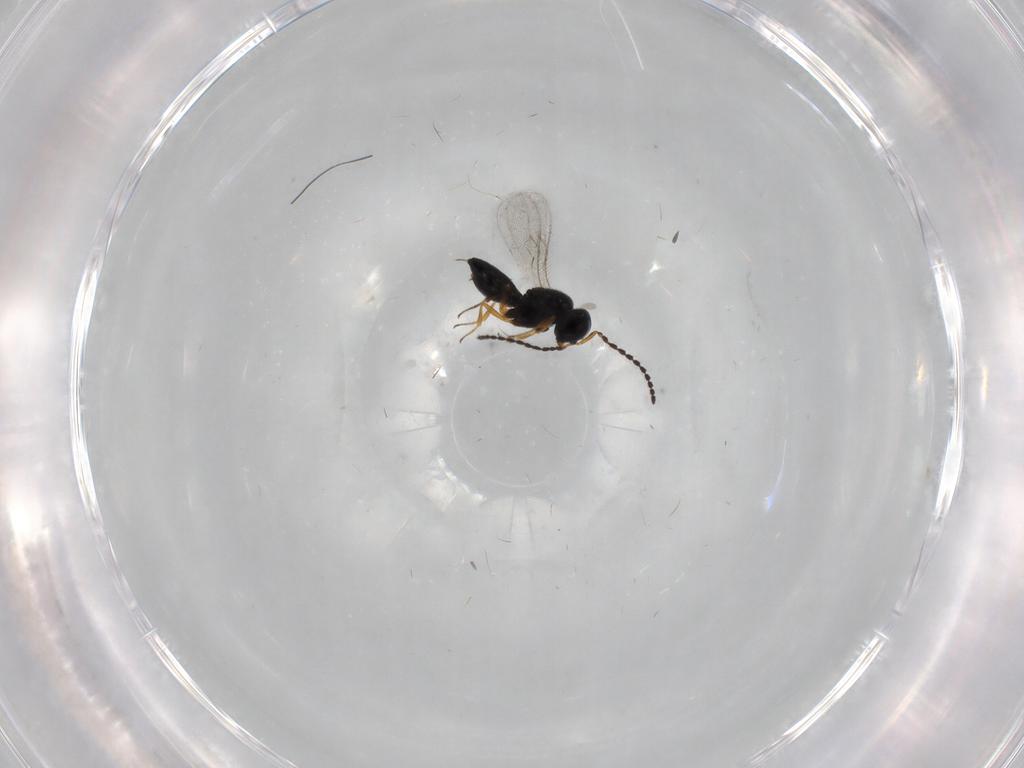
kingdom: Animalia
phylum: Arthropoda
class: Insecta
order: Hymenoptera
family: Scelionidae
